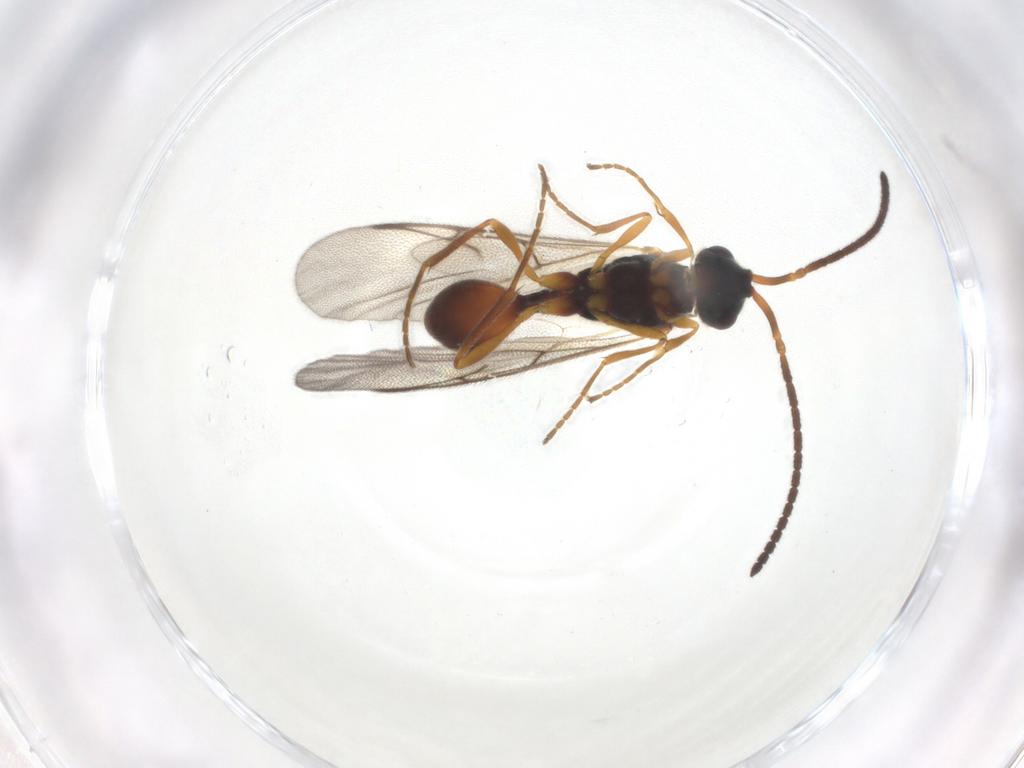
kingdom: Animalia
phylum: Arthropoda
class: Insecta
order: Hymenoptera
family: Diapriidae
